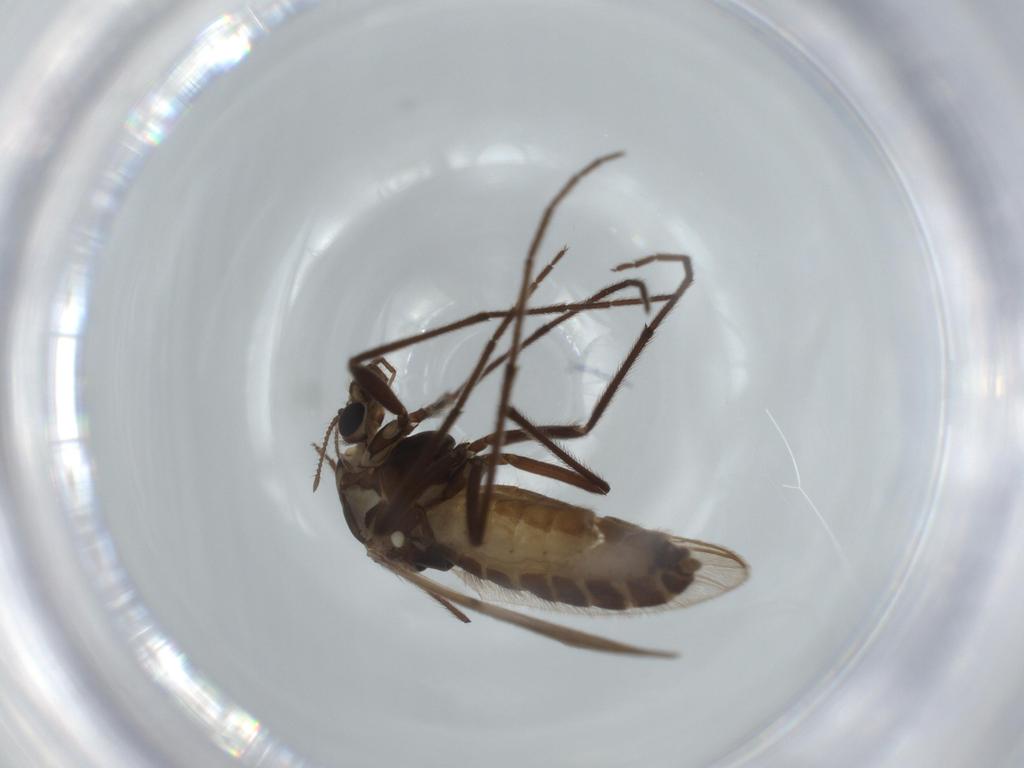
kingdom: Animalia
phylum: Arthropoda
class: Insecta
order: Diptera
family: Chironomidae
